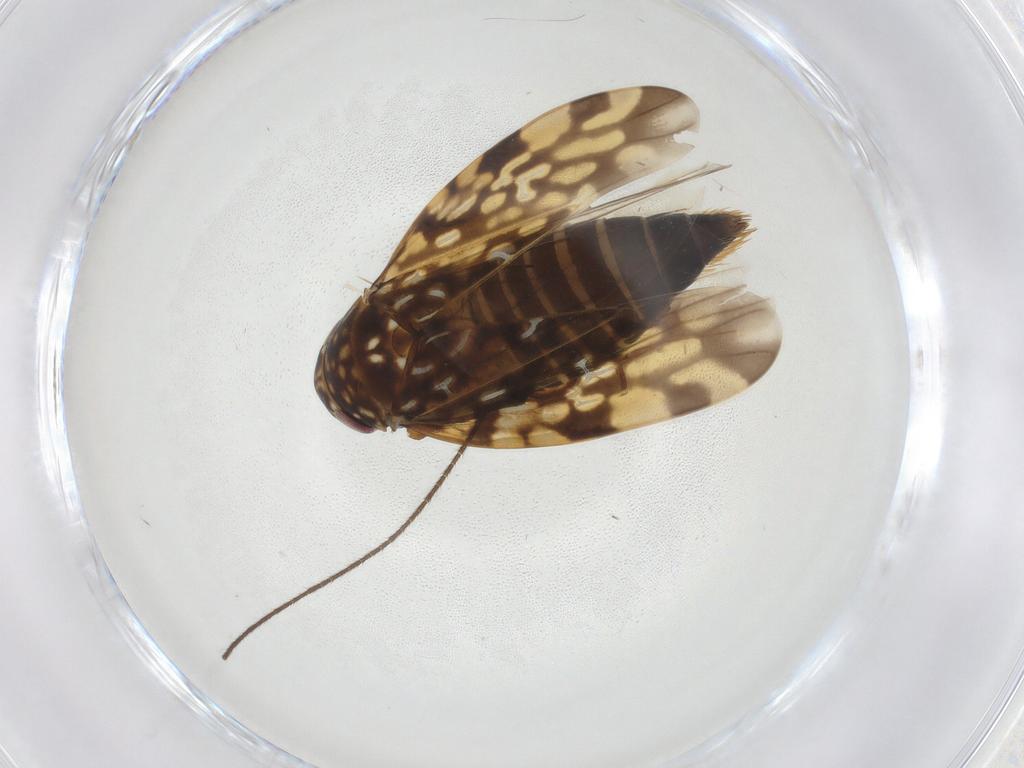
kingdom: Animalia
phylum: Arthropoda
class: Insecta
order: Hemiptera
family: Cicadellidae
